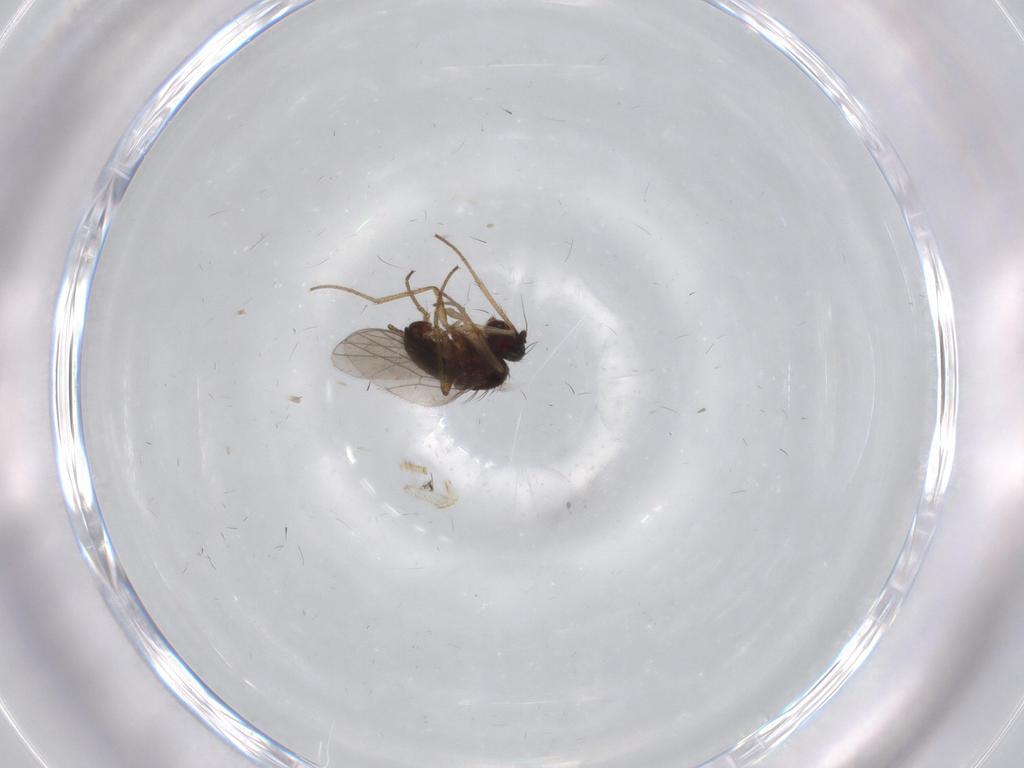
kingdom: Animalia
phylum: Arthropoda
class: Insecta
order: Diptera
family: Dolichopodidae
